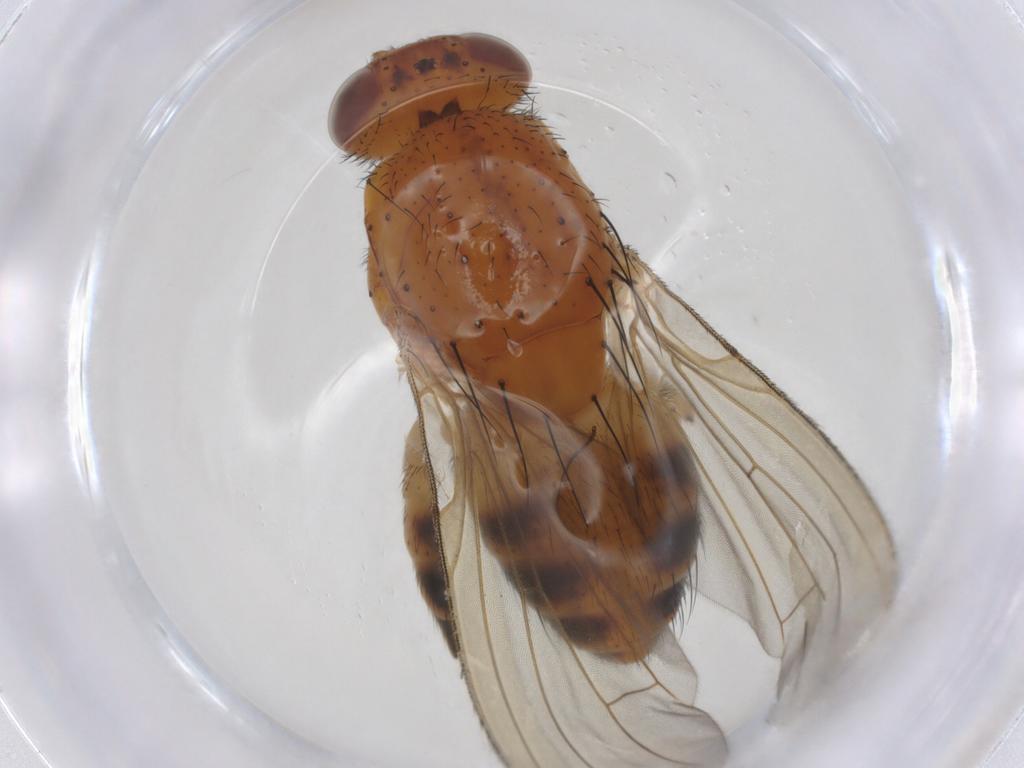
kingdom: Animalia
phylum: Arthropoda
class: Insecta
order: Diptera
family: Lauxaniidae
